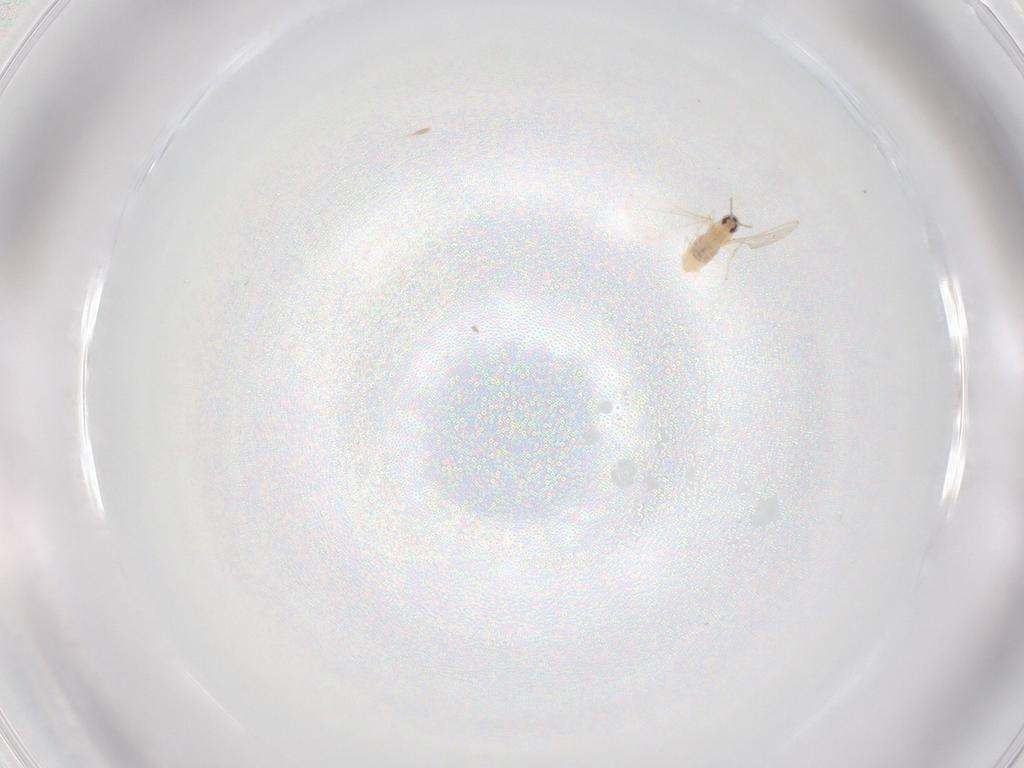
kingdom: Animalia
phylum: Arthropoda
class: Insecta
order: Diptera
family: Cecidomyiidae
